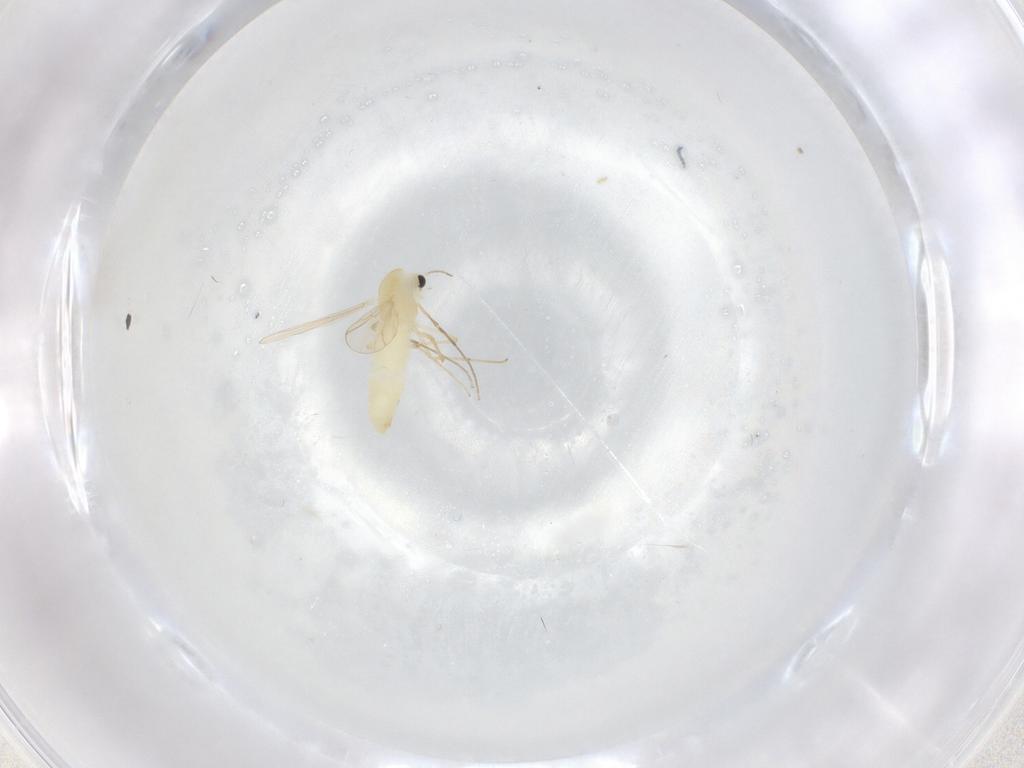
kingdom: Animalia
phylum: Arthropoda
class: Insecta
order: Diptera
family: Chironomidae
